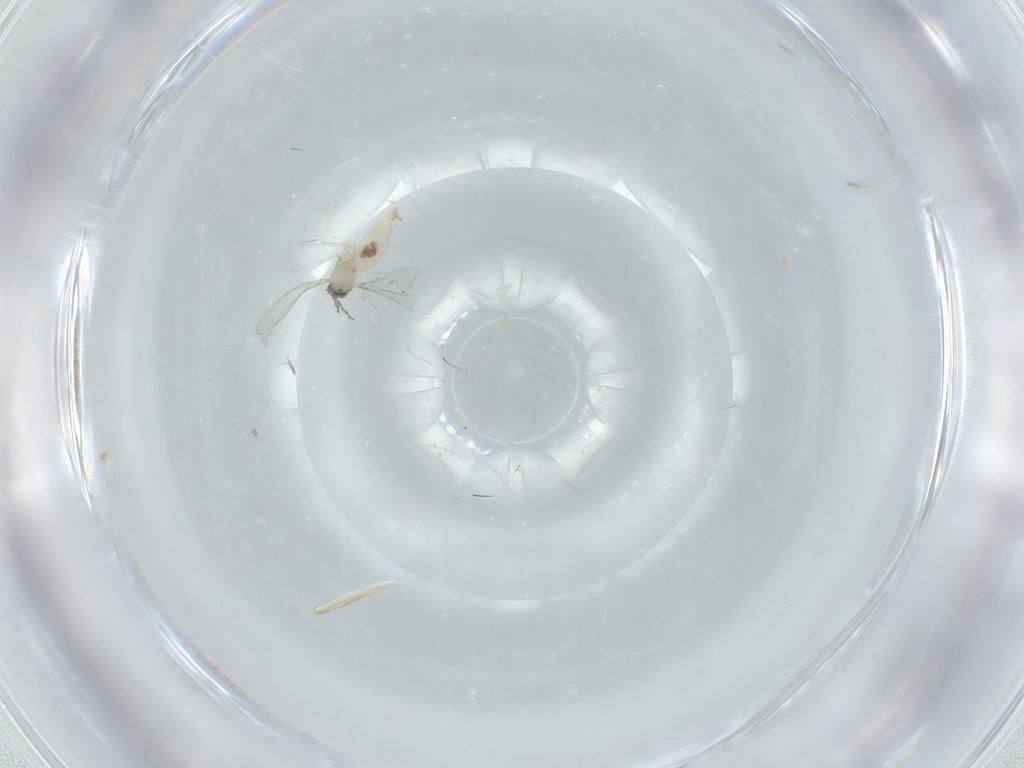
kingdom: Animalia
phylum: Arthropoda
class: Insecta
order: Diptera
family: Cecidomyiidae
